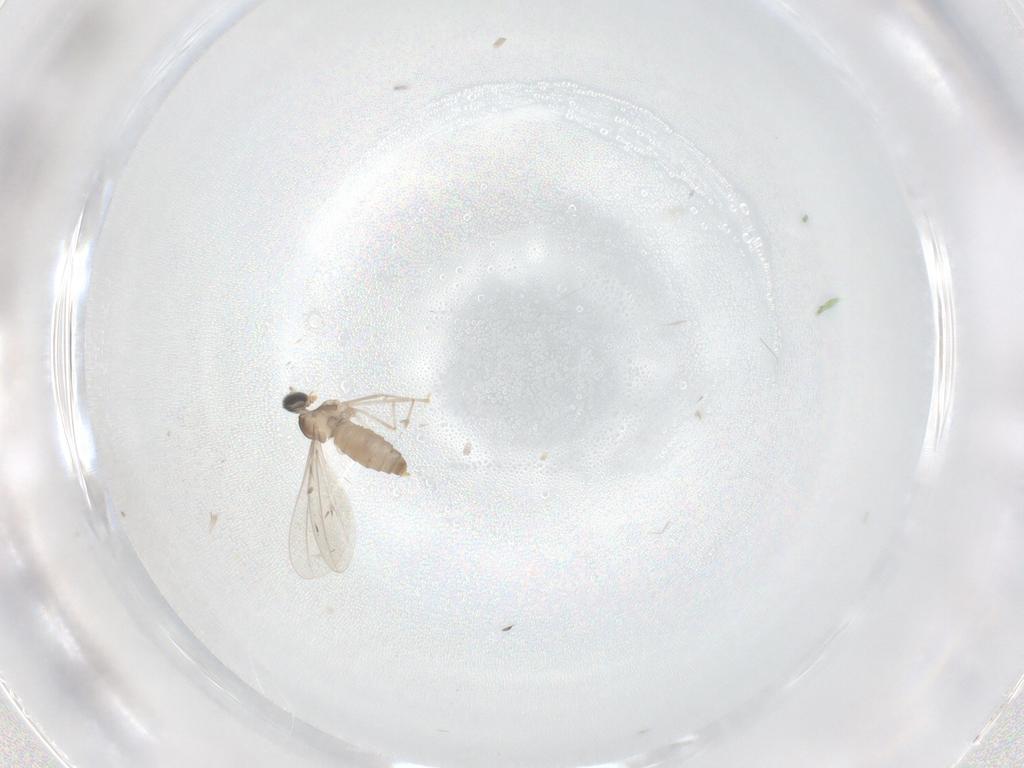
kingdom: Animalia
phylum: Arthropoda
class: Insecta
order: Diptera
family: Cecidomyiidae
